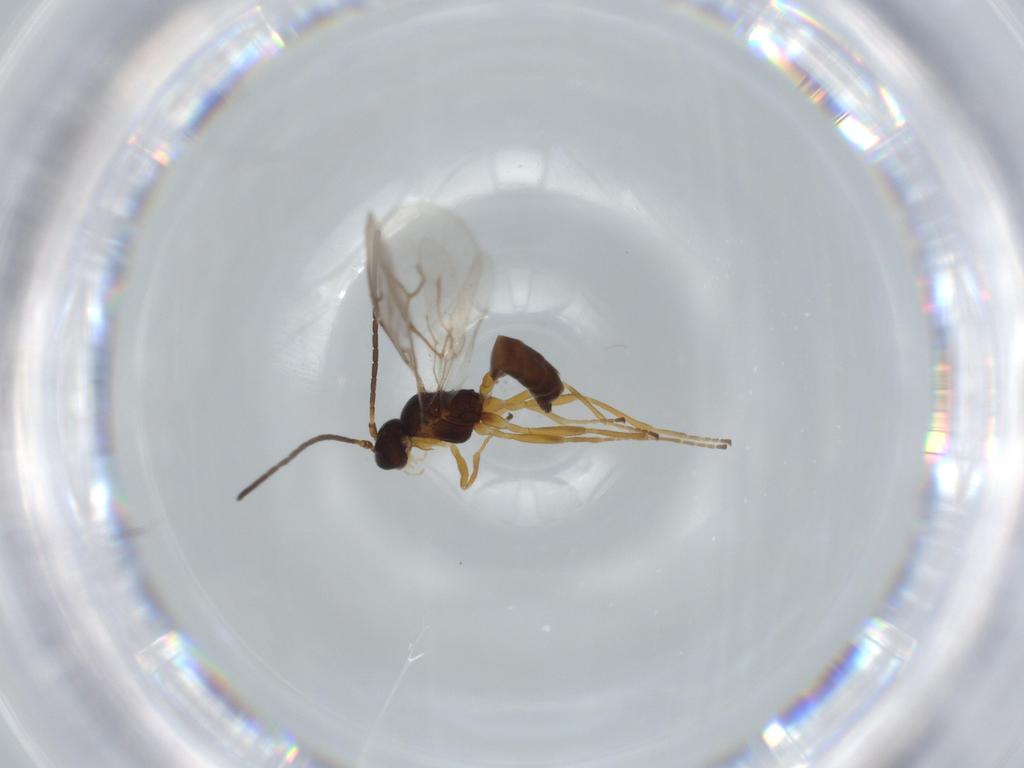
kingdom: Animalia
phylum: Arthropoda
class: Insecta
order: Hymenoptera
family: Braconidae
